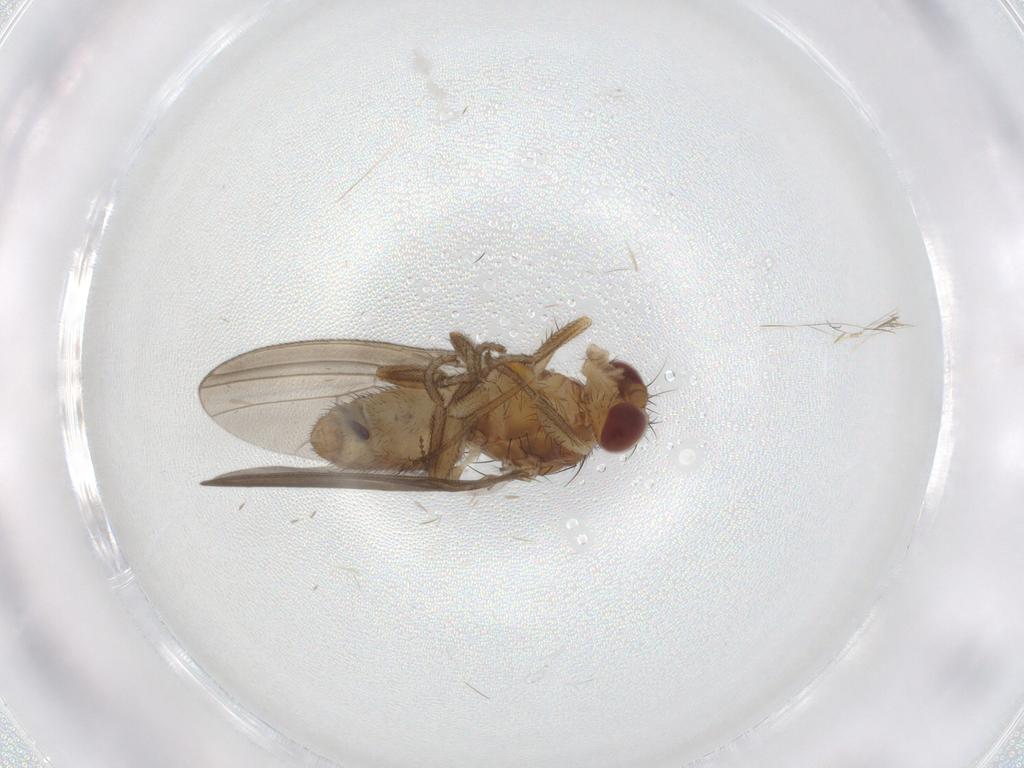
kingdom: Animalia
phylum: Arthropoda
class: Insecta
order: Diptera
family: Natalimyzidae
